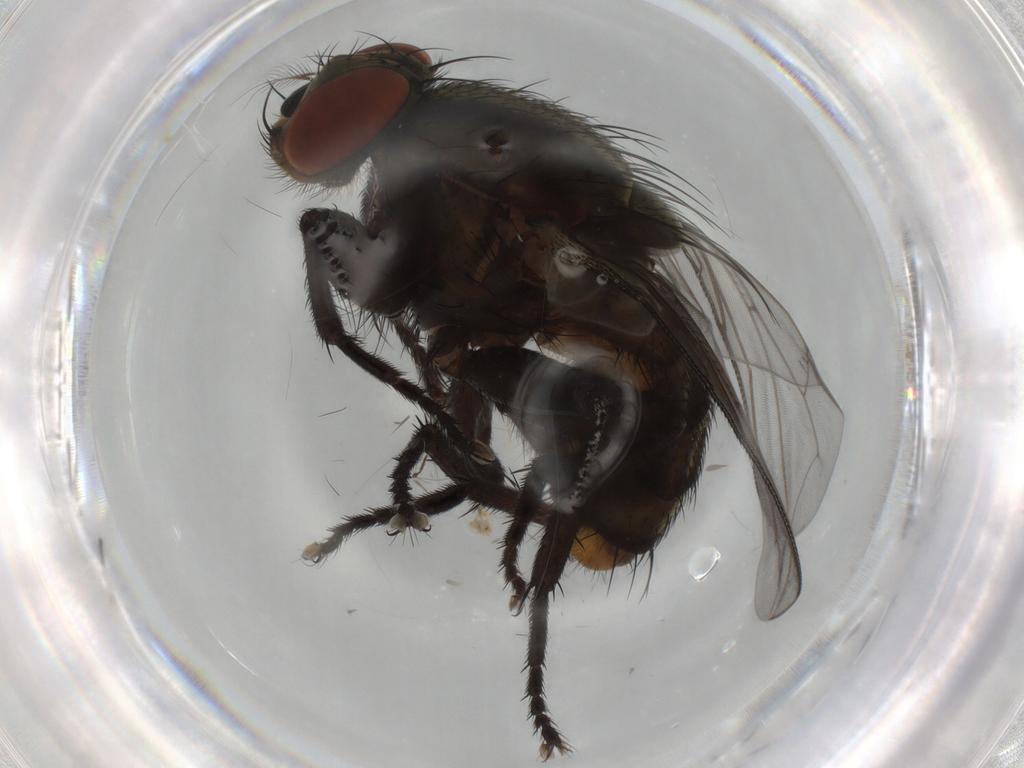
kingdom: Animalia
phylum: Arthropoda
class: Insecta
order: Diptera
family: Sarcophagidae
